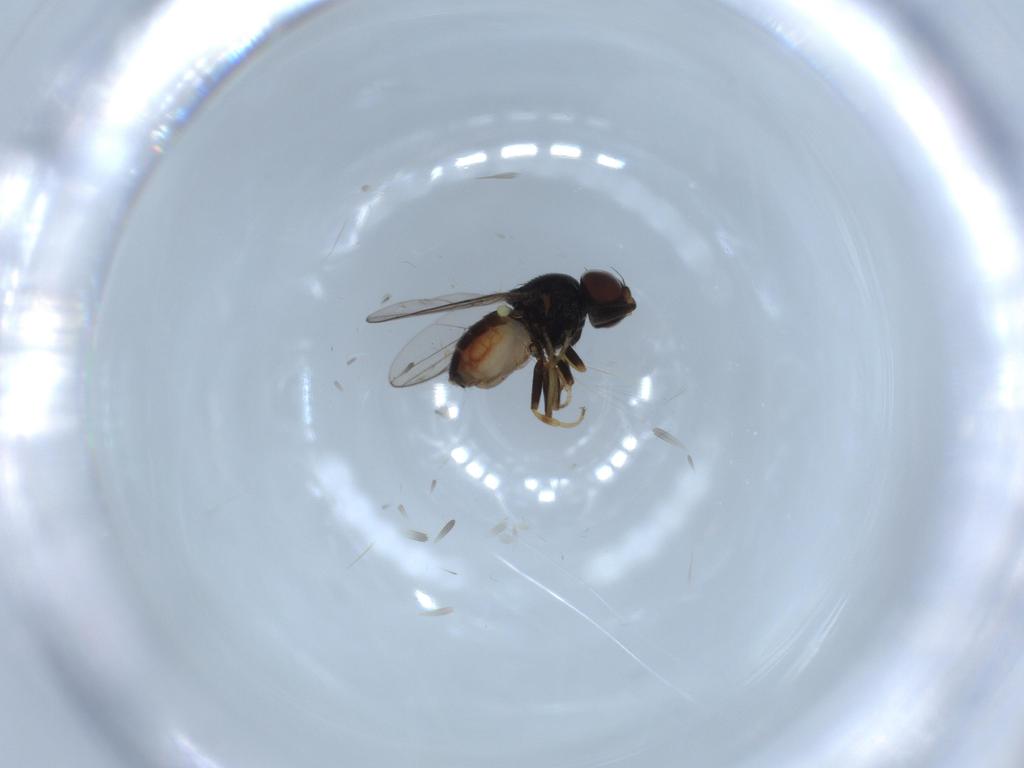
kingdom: Animalia
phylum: Arthropoda
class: Insecta
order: Diptera
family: Chloropidae
